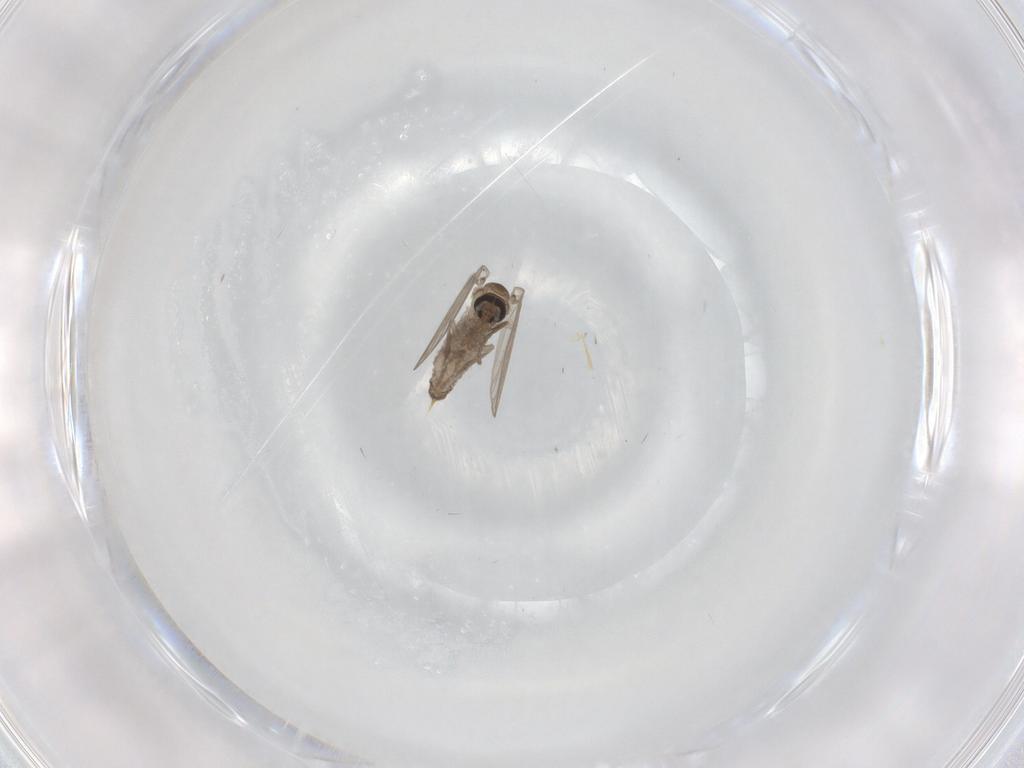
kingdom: Animalia
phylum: Arthropoda
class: Insecta
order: Diptera
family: Psychodidae
